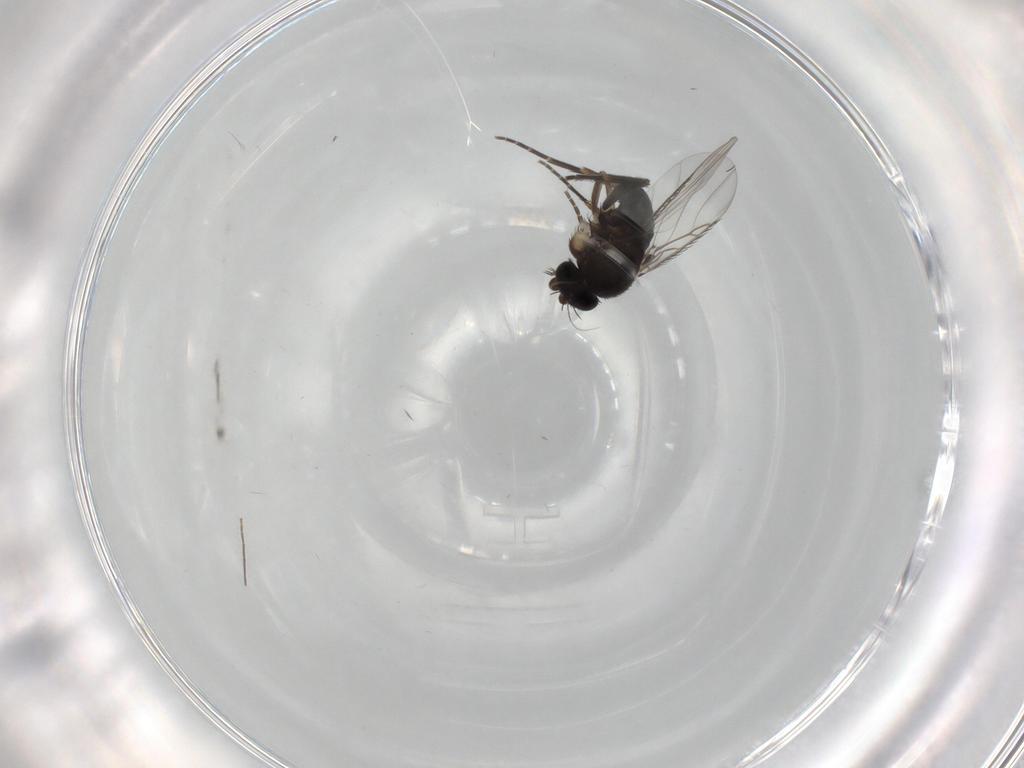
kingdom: Animalia
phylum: Arthropoda
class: Insecta
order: Diptera
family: Phoridae
